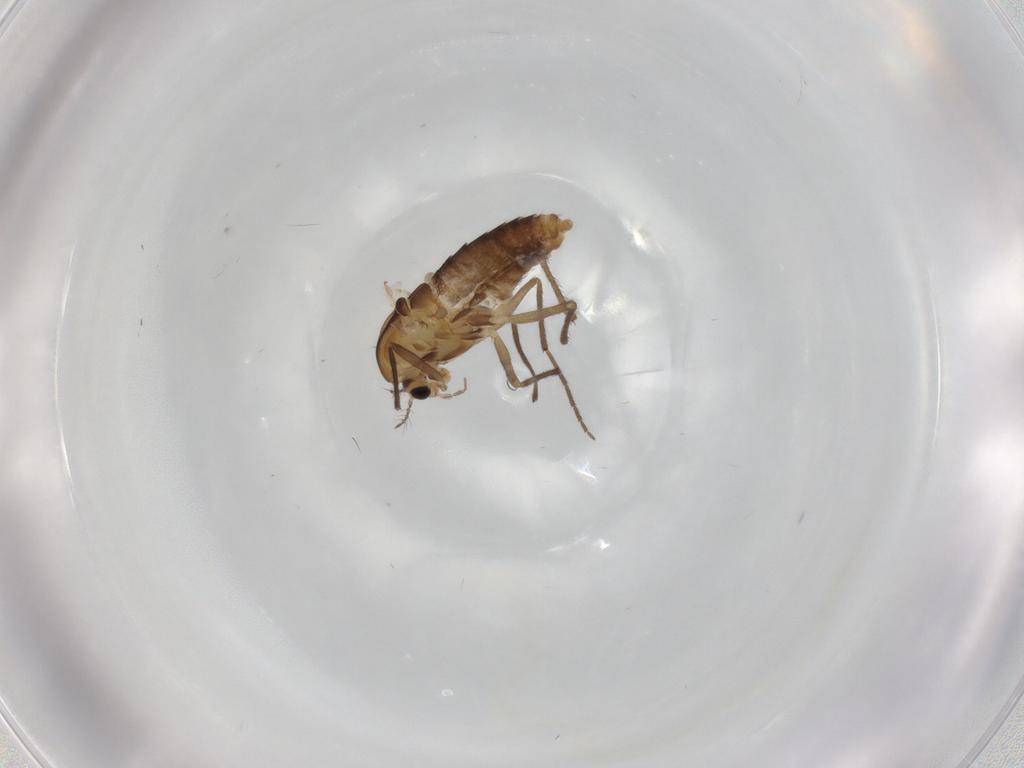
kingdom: Animalia
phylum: Arthropoda
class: Insecta
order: Diptera
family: Chironomidae
